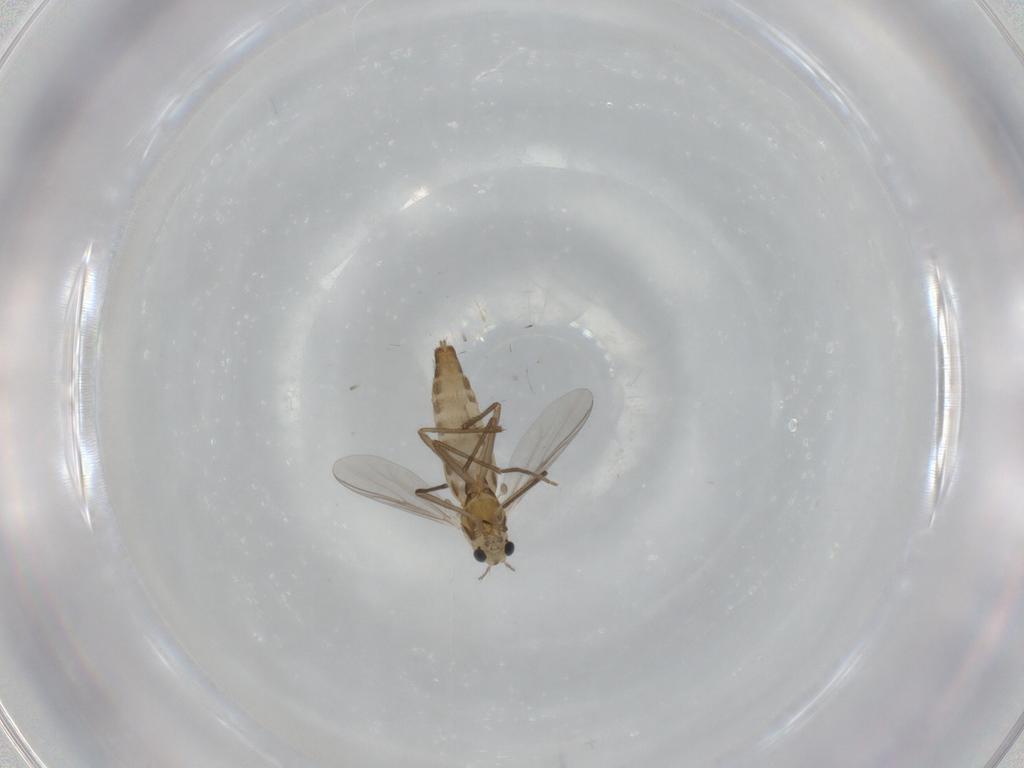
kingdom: Animalia
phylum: Arthropoda
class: Insecta
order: Diptera
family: Chironomidae
